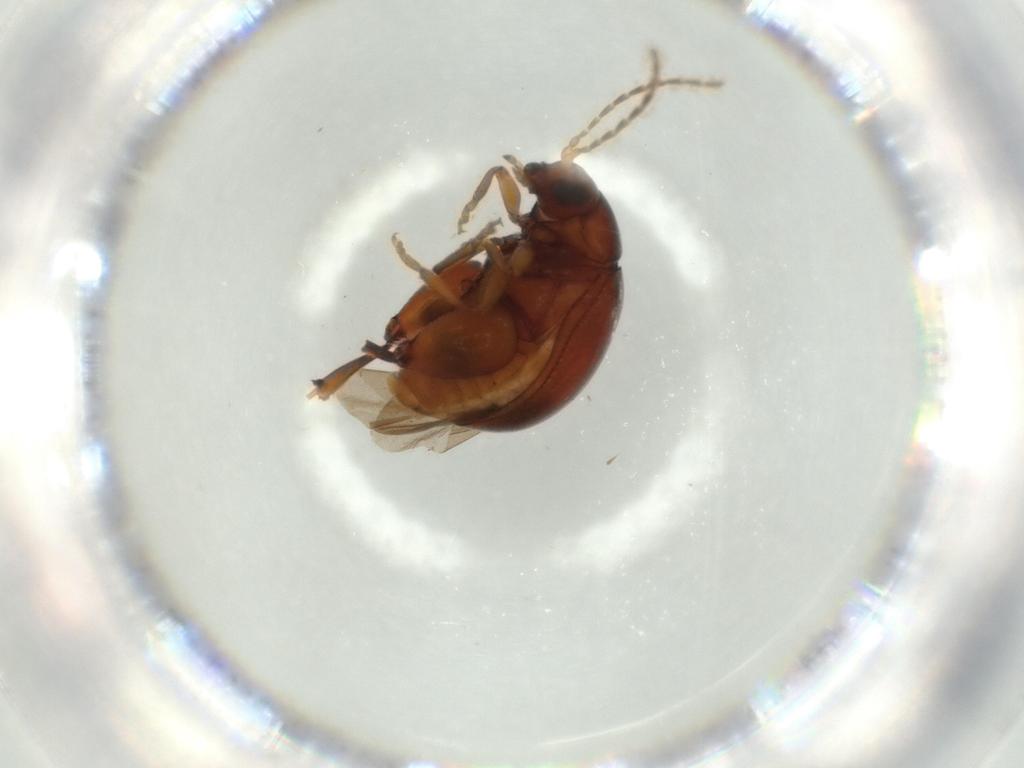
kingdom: Animalia
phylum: Arthropoda
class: Insecta
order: Coleoptera
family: Chrysomelidae
